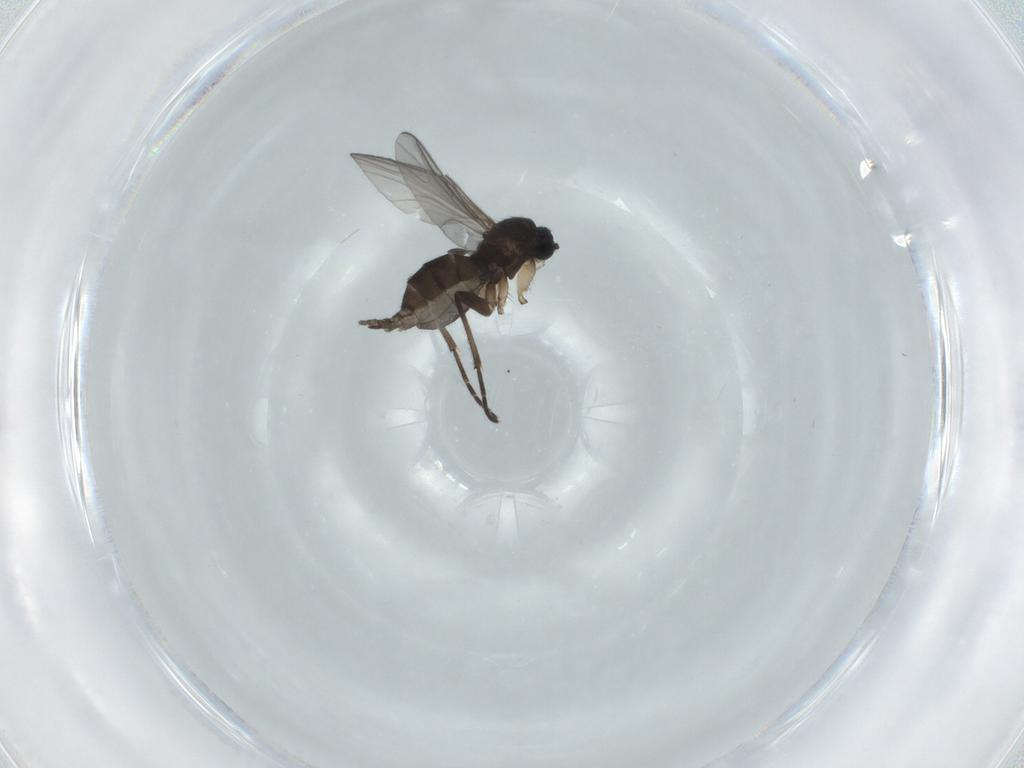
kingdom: Animalia
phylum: Arthropoda
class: Insecta
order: Diptera
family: Sciaridae
